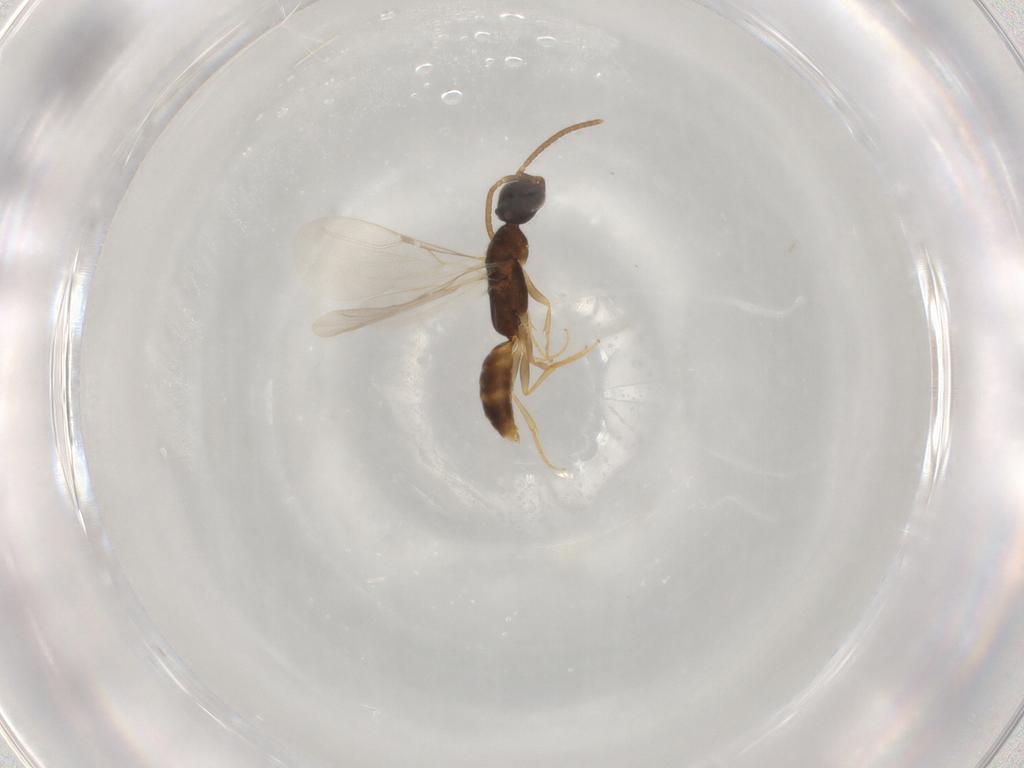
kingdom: Animalia
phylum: Arthropoda
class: Insecta
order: Hymenoptera
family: Bethylidae
